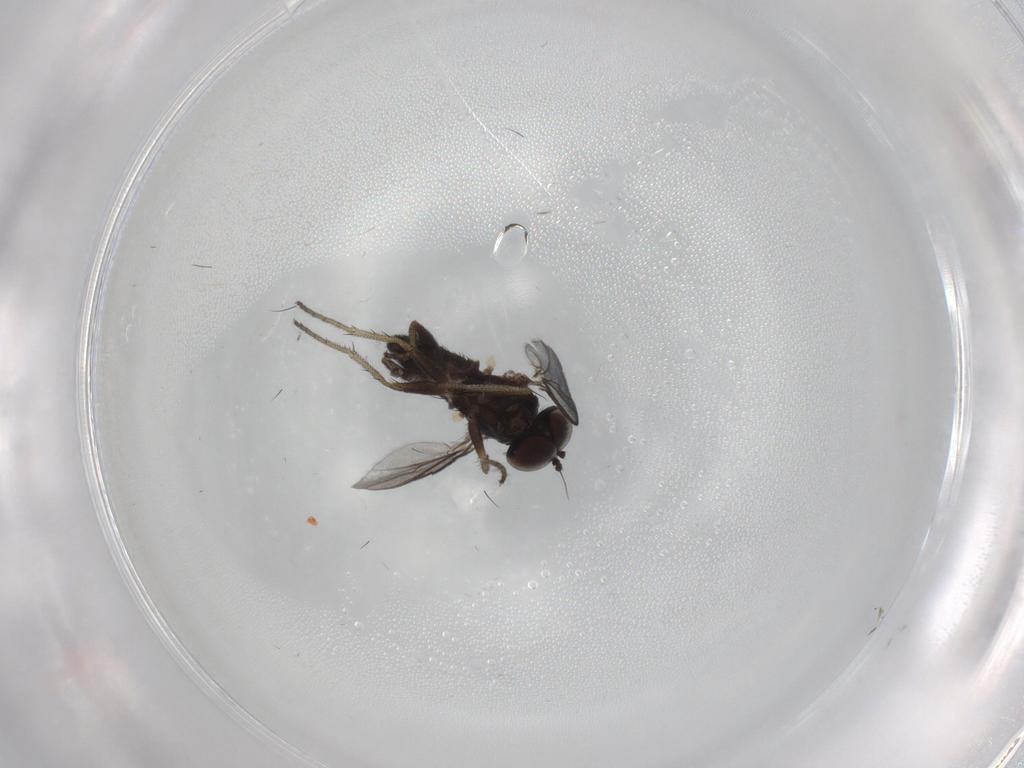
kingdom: Animalia
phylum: Arthropoda
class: Insecta
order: Diptera
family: Dolichopodidae
